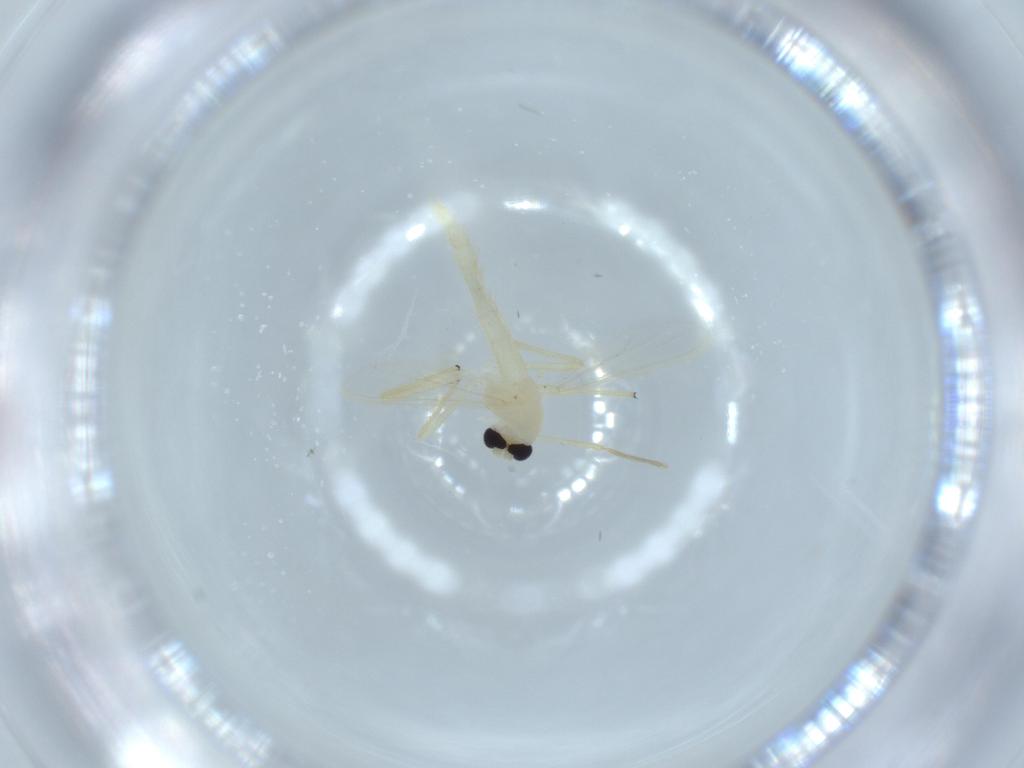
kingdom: Animalia
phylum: Arthropoda
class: Insecta
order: Diptera
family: Chironomidae
